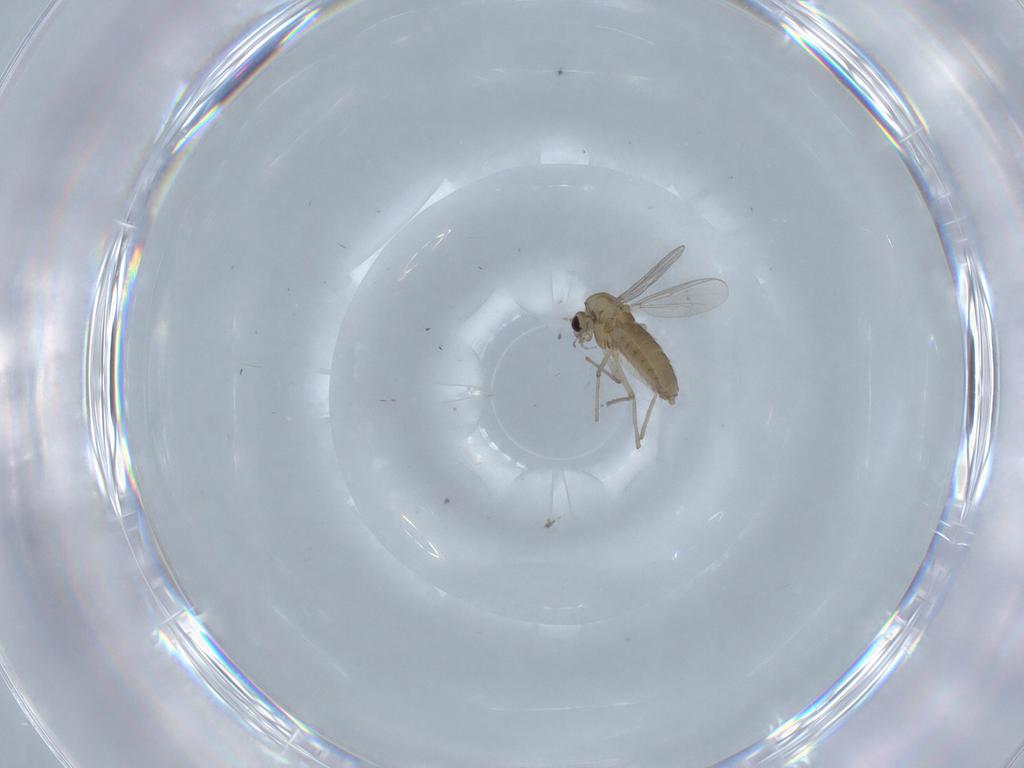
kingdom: Animalia
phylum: Arthropoda
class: Insecta
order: Diptera
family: Chironomidae
